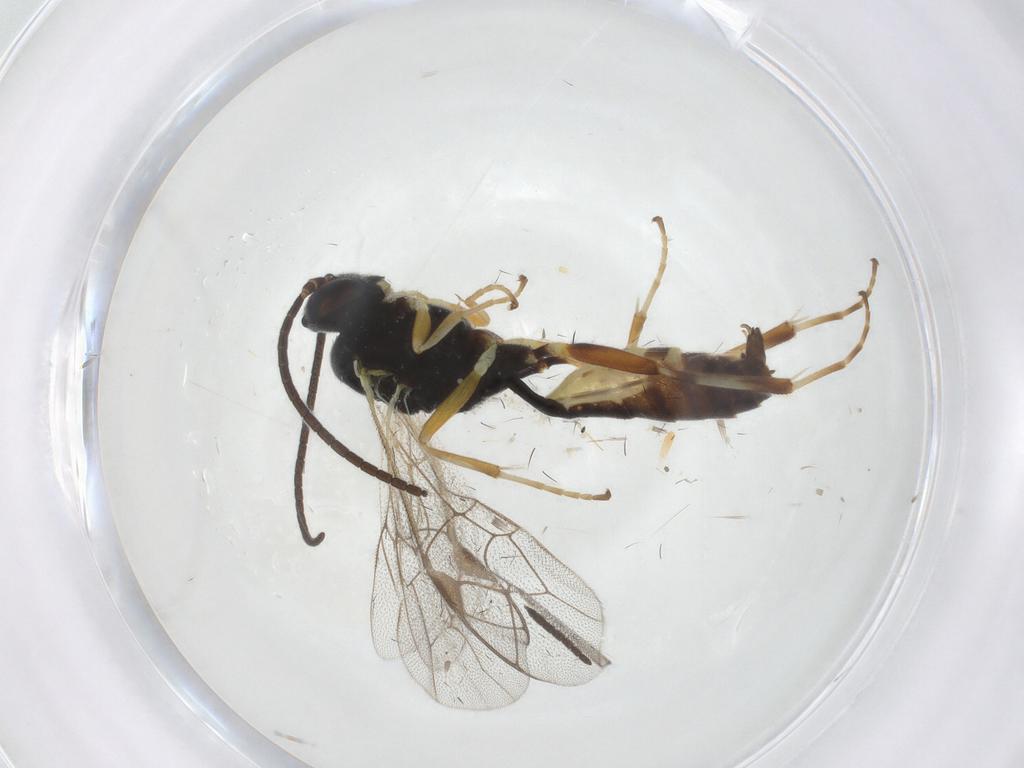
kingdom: Animalia
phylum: Arthropoda
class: Insecta
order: Hymenoptera
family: Ichneumonidae
